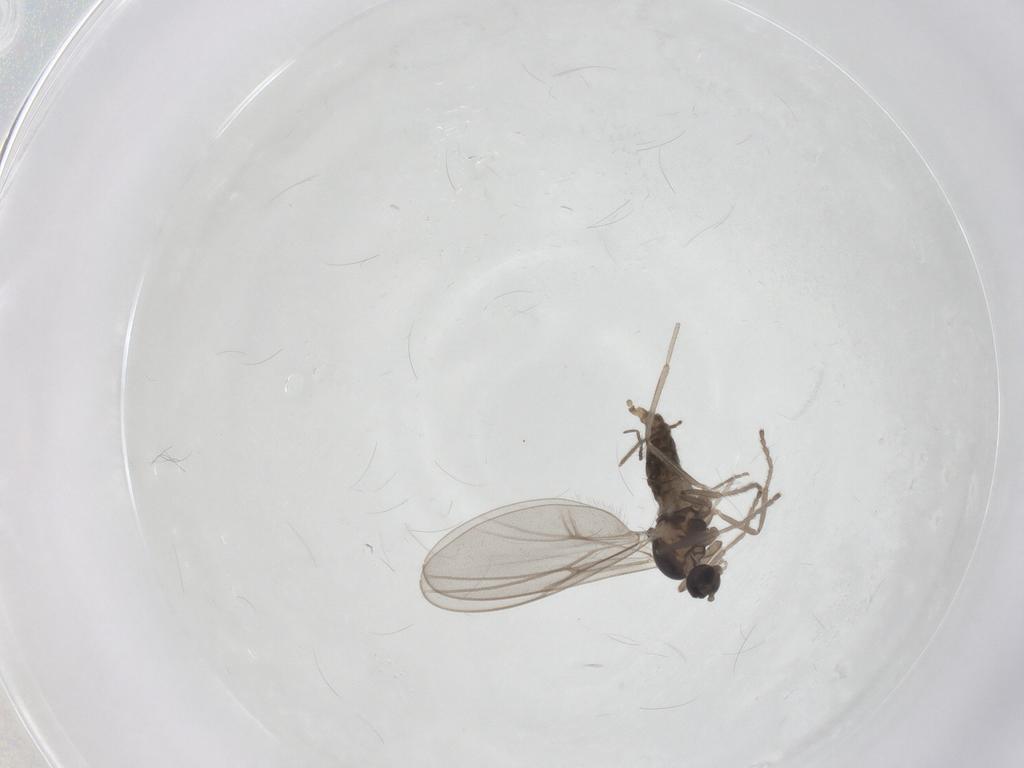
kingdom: Animalia
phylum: Arthropoda
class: Insecta
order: Diptera
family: Cecidomyiidae
